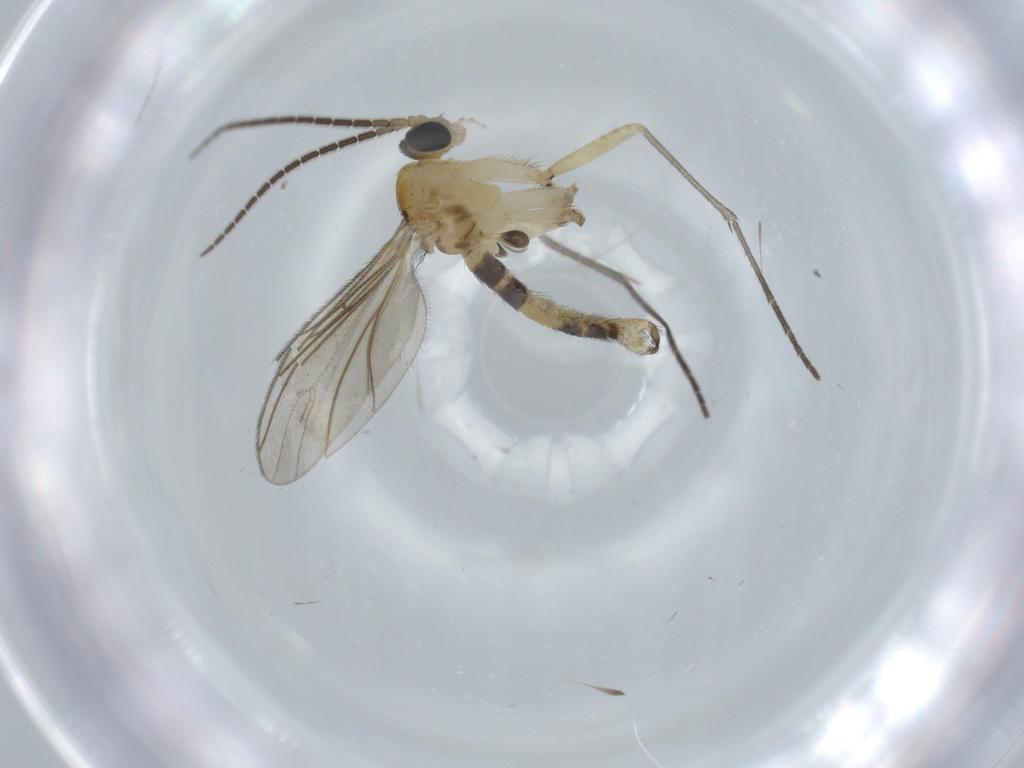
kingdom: Animalia
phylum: Arthropoda
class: Insecta
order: Diptera
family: Sciaridae
